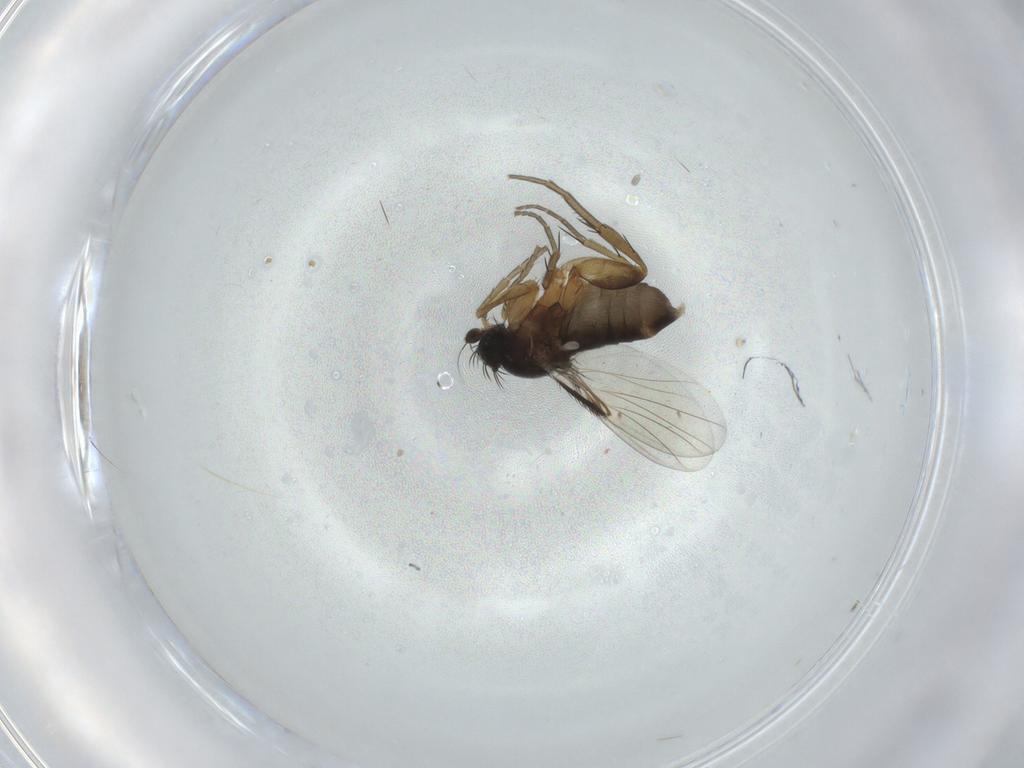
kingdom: Animalia
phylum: Arthropoda
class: Insecta
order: Diptera
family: Phoridae
